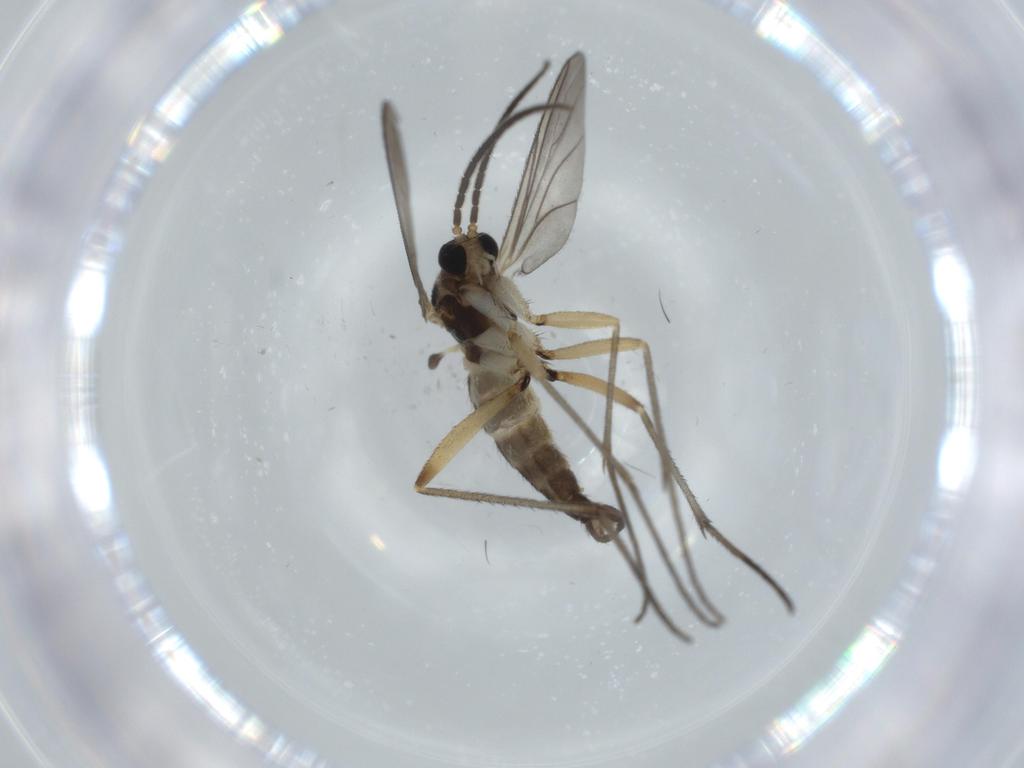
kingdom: Animalia
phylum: Arthropoda
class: Insecta
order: Diptera
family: Sciaridae
